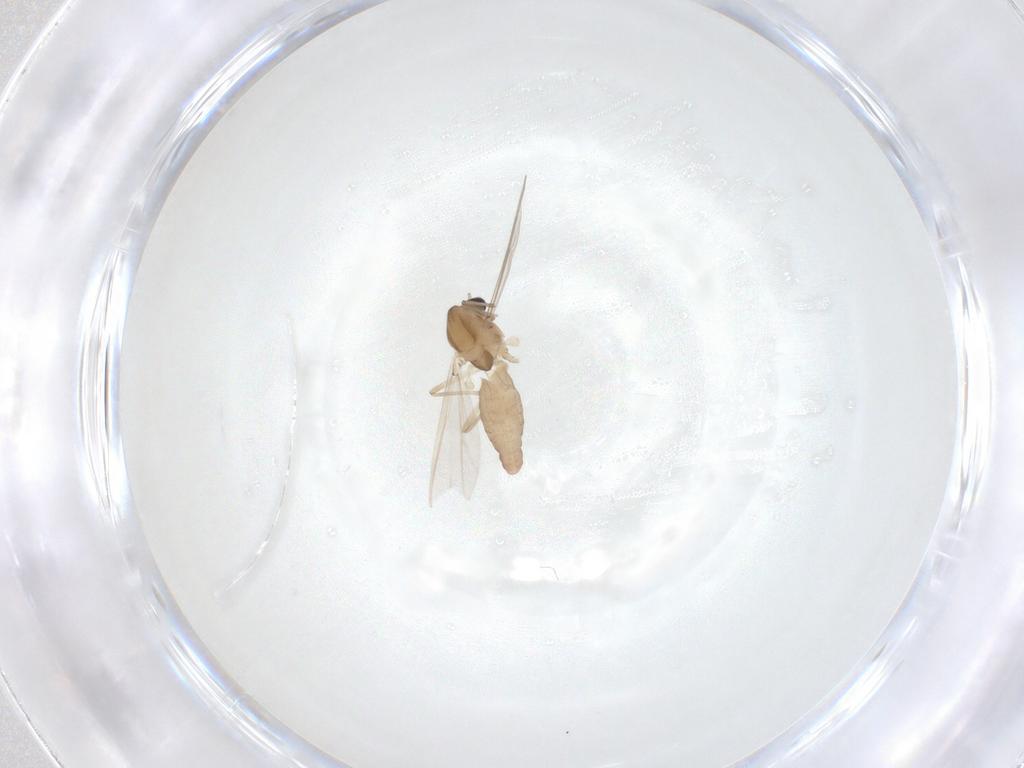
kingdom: Animalia
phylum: Arthropoda
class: Insecta
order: Diptera
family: Chironomidae
